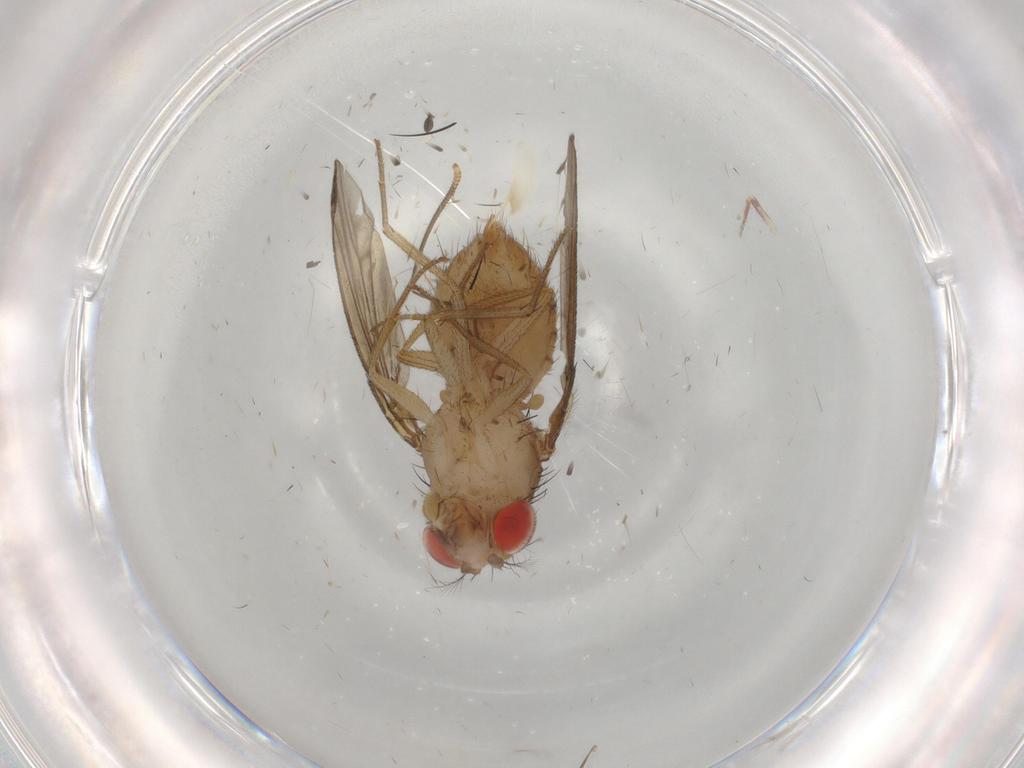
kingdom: Animalia
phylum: Arthropoda
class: Insecta
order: Diptera
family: Drosophilidae
